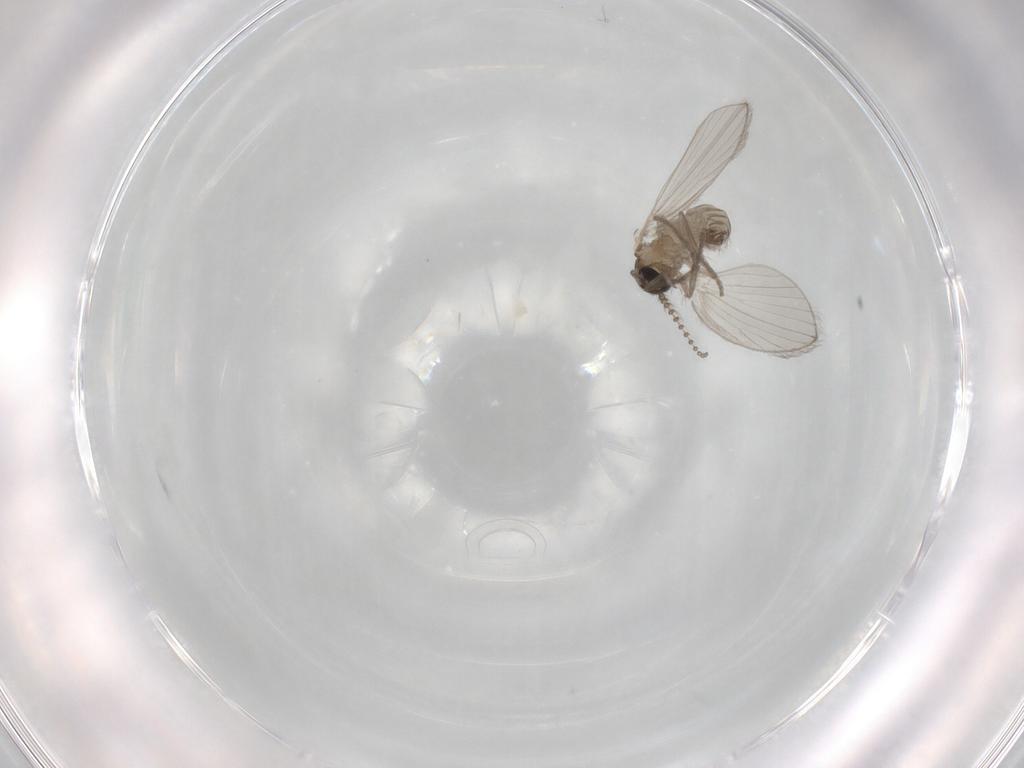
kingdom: Animalia
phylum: Arthropoda
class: Insecta
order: Diptera
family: Psychodidae
